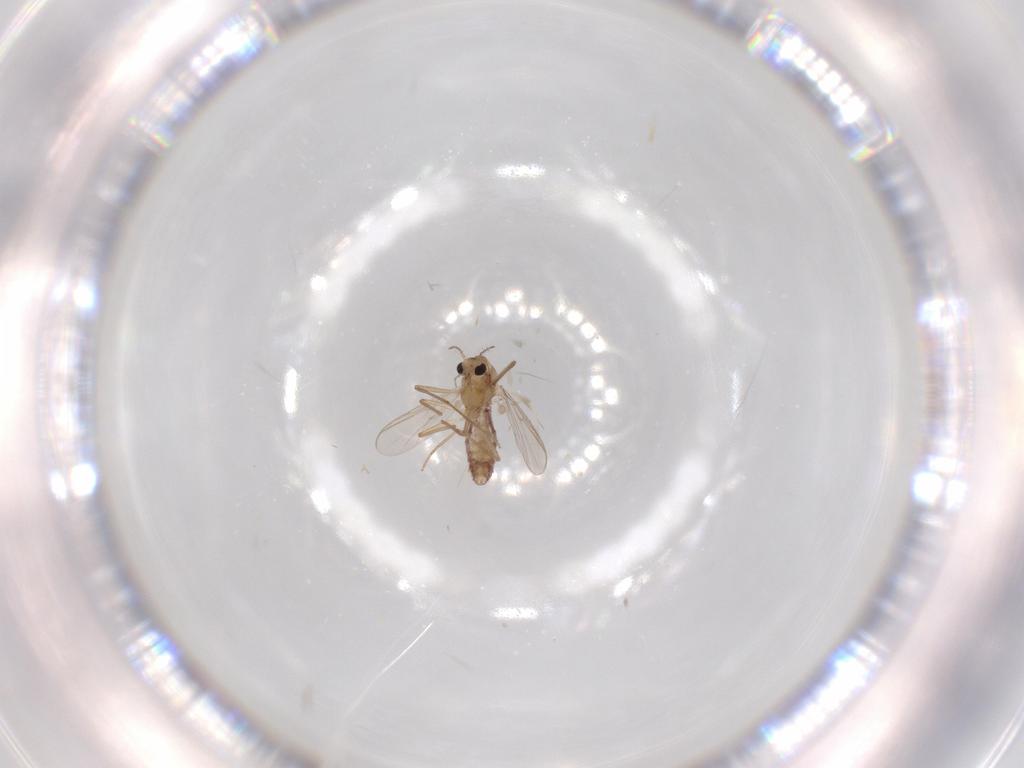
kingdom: Animalia
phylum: Arthropoda
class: Insecta
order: Diptera
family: Chironomidae
